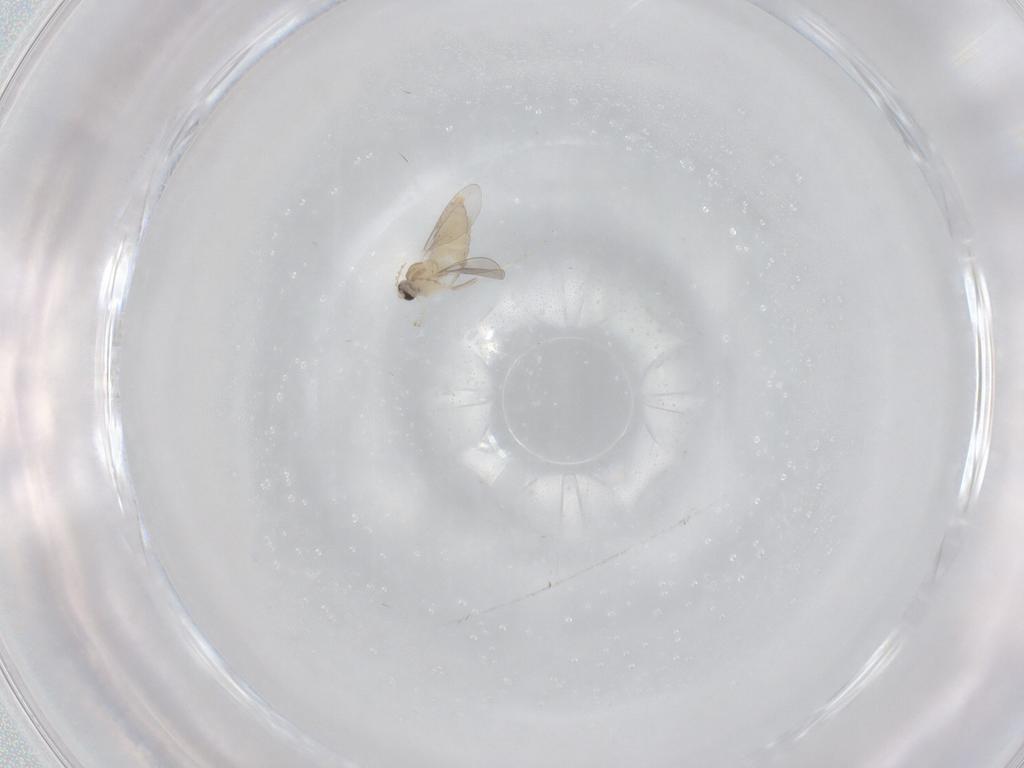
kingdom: Animalia
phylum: Arthropoda
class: Insecta
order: Diptera
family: Cecidomyiidae
